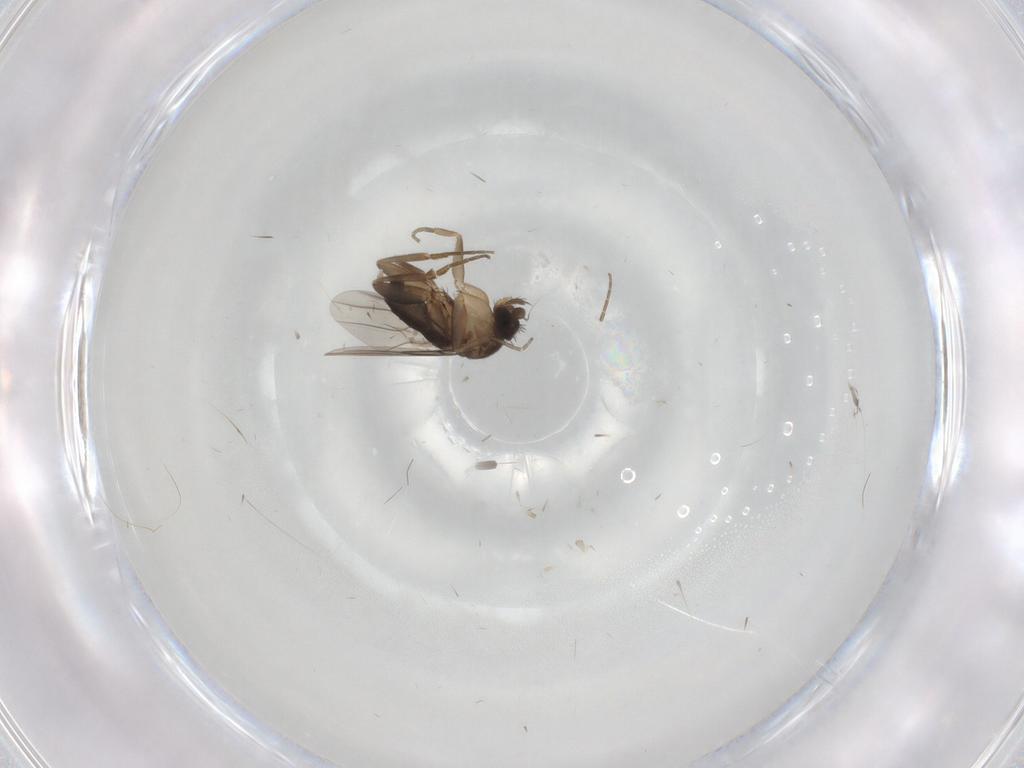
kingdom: Animalia
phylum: Arthropoda
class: Insecta
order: Diptera
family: Phoridae
